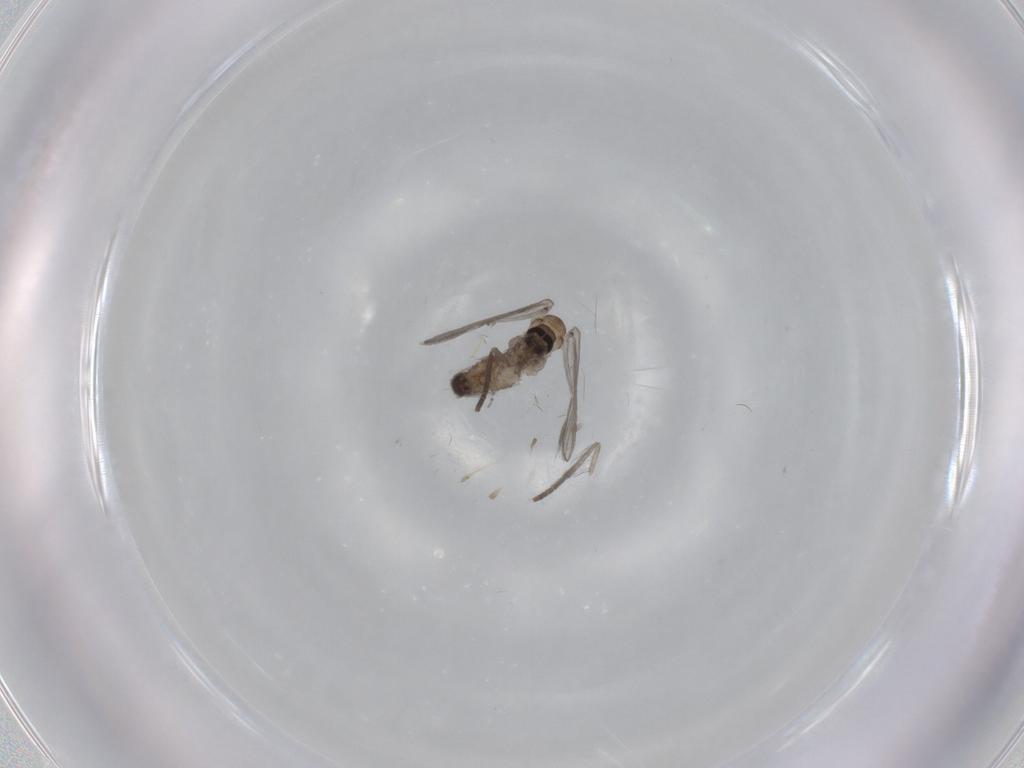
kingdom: Animalia
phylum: Arthropoda
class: Insecta
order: Diptera
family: Psychodidae
